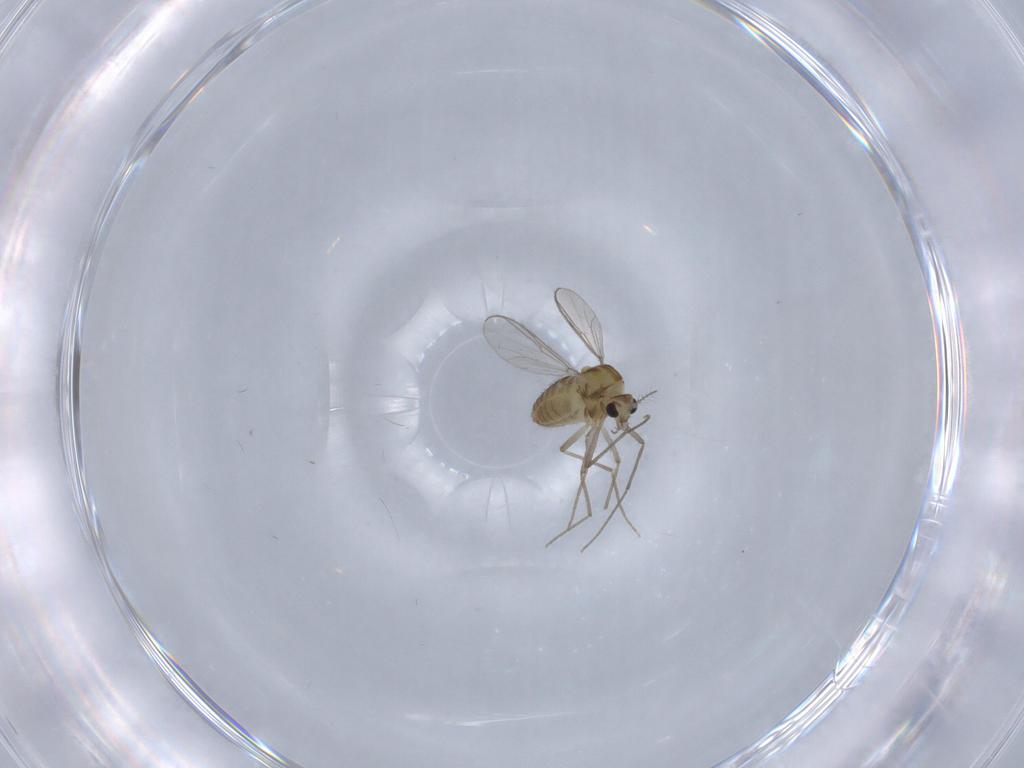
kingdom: Animalia
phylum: Arthropoda
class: Insecta
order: Diptera
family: Chironomidae
